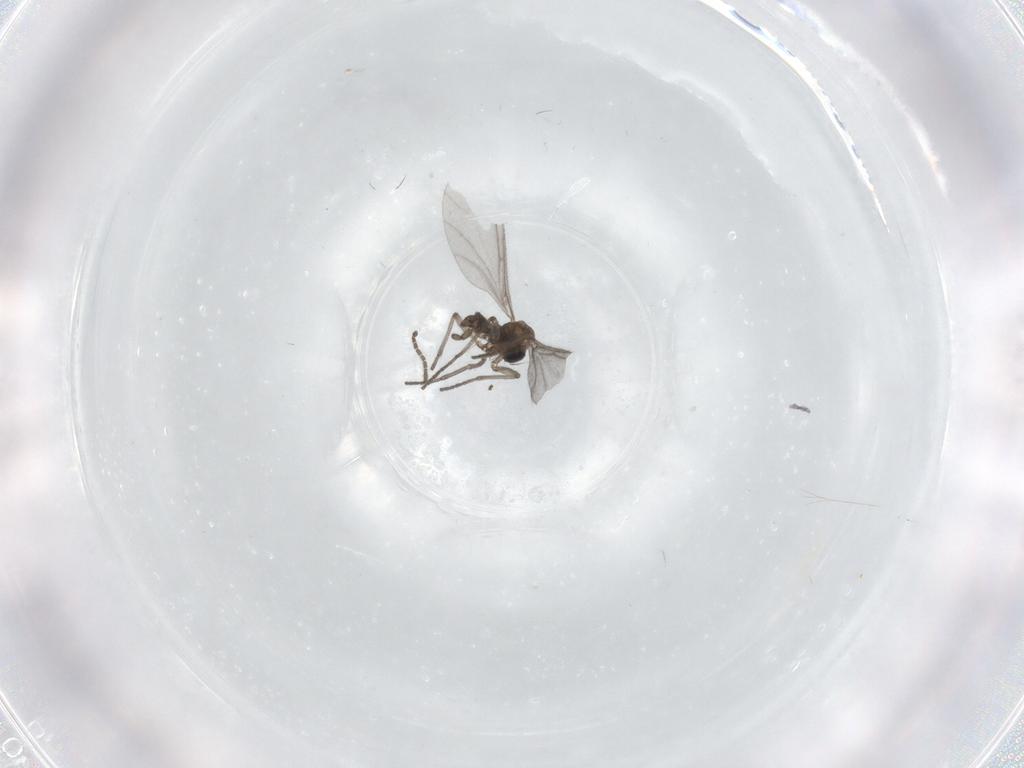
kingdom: Animalia
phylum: Arthropoda
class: Insecta
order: Diptera
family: Sciaridae
